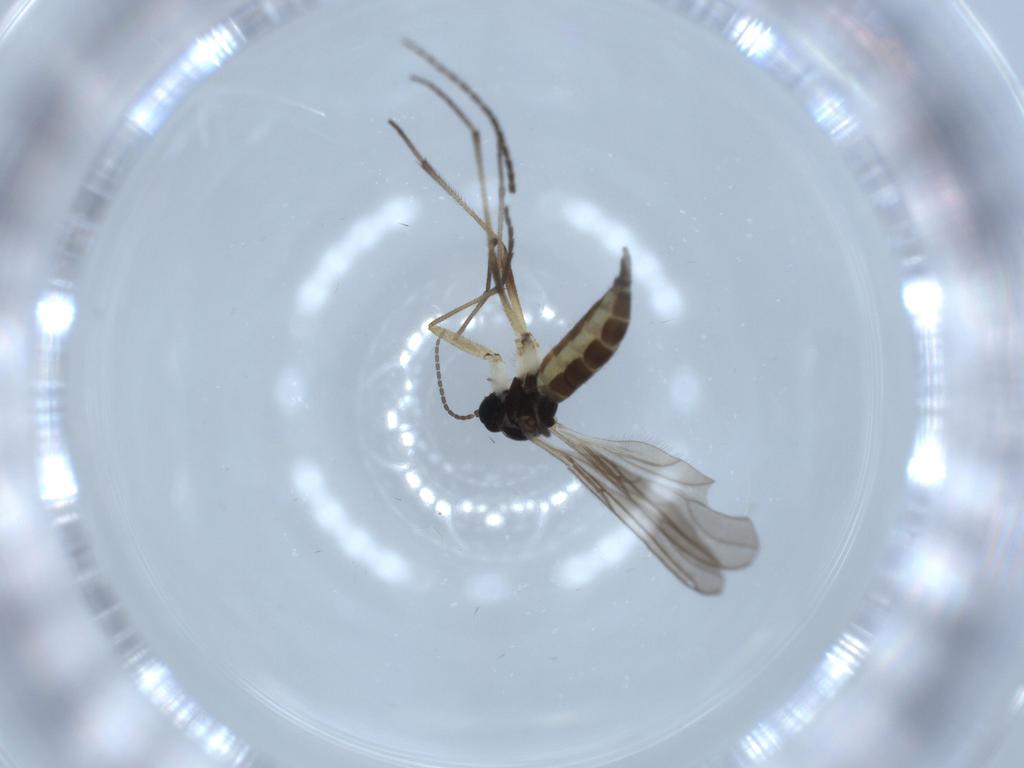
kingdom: Animalia
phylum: Arthropoda
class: Insecta
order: Diptera
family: Sciaridae
